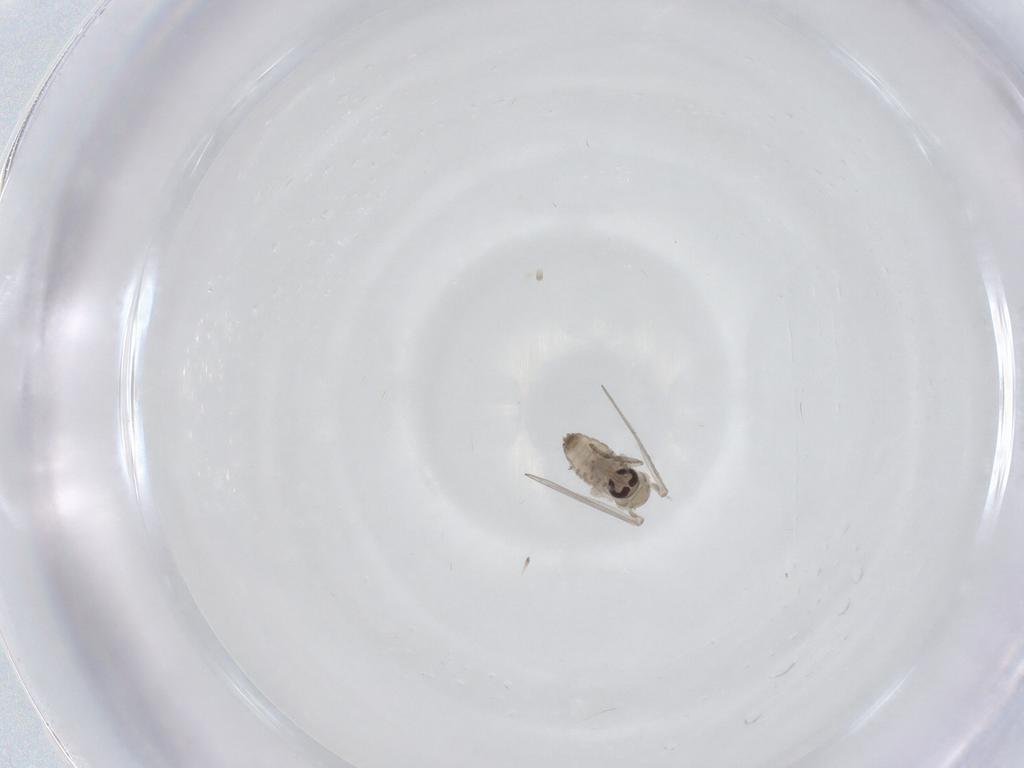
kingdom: Animalia
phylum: Arthropoda
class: Insecta
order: Diptera
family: Psychodidae
